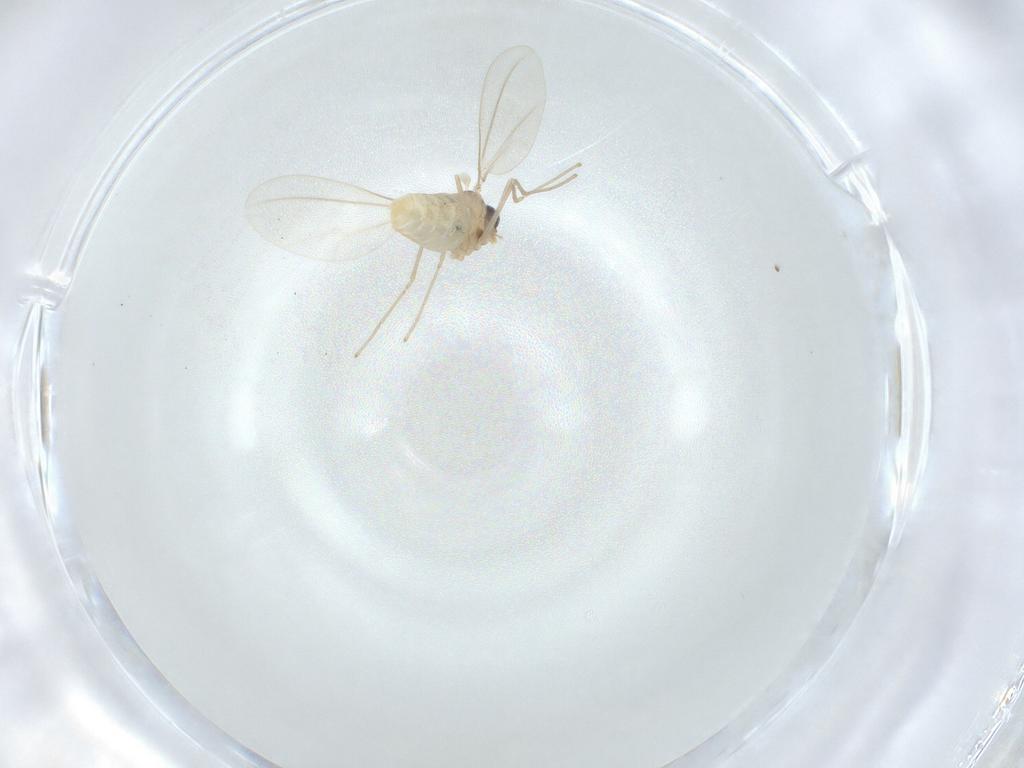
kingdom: Animalia
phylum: Arthropoda
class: Insecta
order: Diptera
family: Cecidomyiidae
